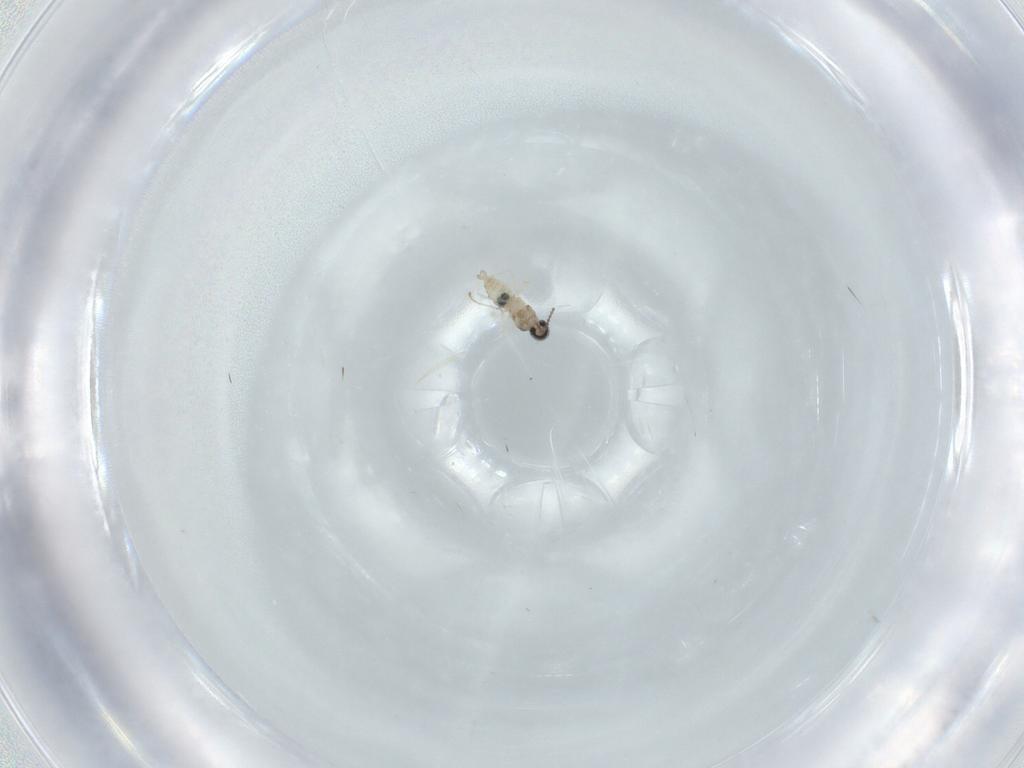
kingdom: Animalia
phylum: Arthropoda
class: Insecta
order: Diptera
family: Cecidomyiidae
